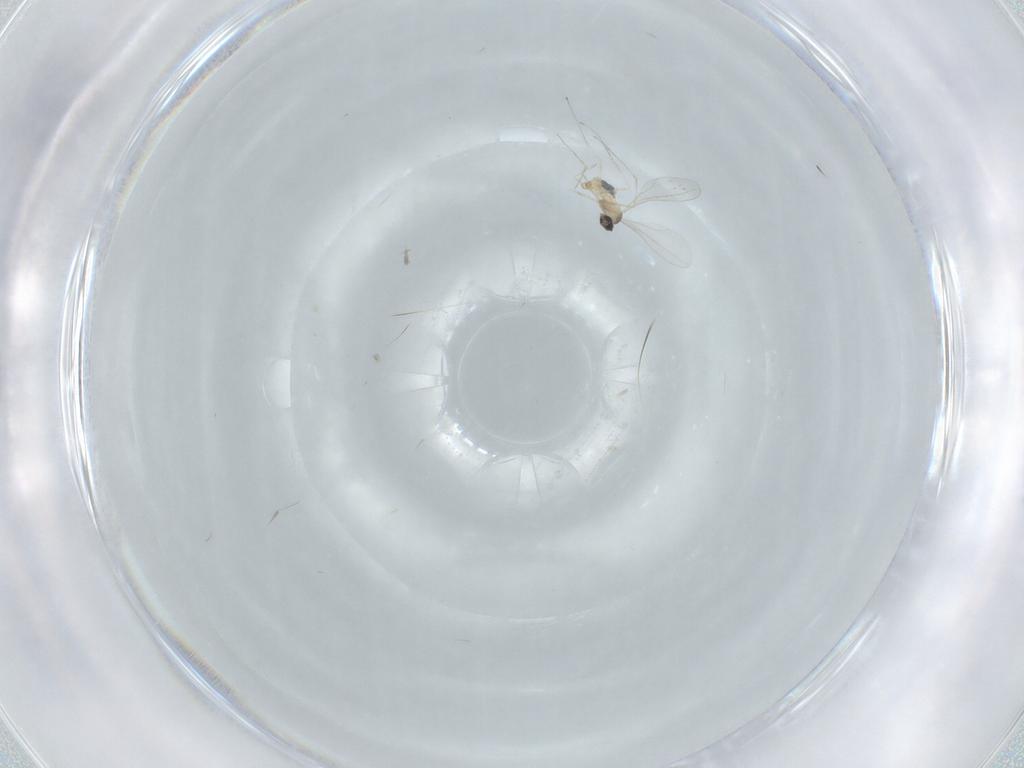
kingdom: Animalia
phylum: Arthropoda
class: Insecta
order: Diptera
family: Cecidomyiidae
